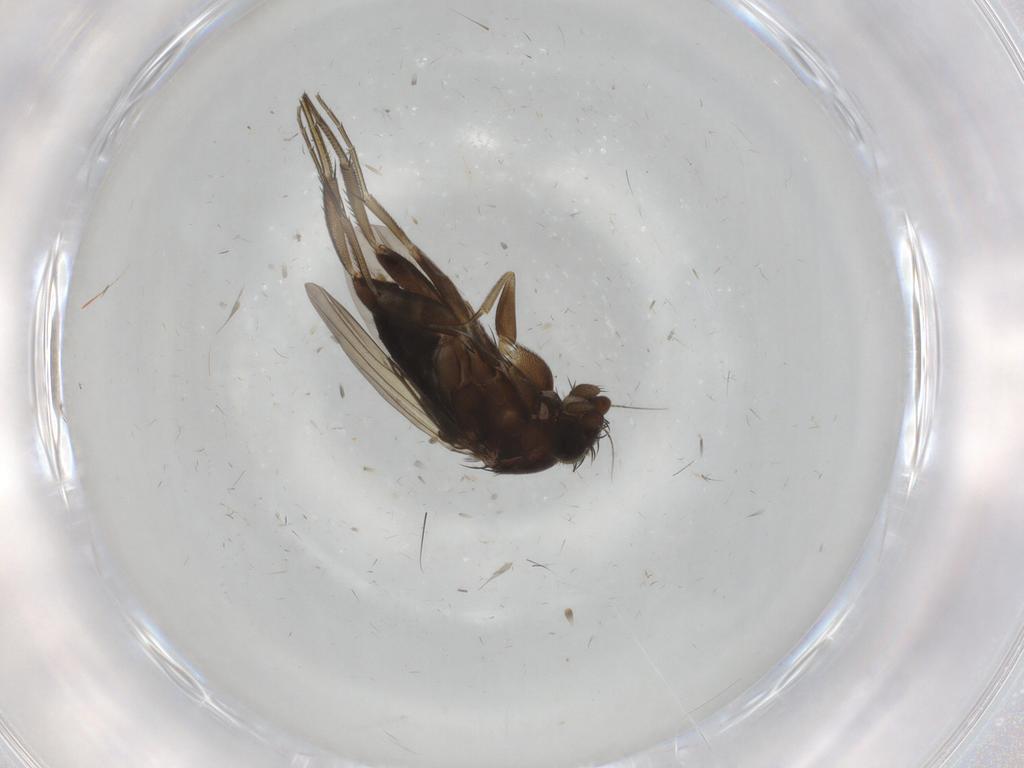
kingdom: Animalia
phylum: Arthropoda
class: Insecta
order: Diptera
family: Phoridae
